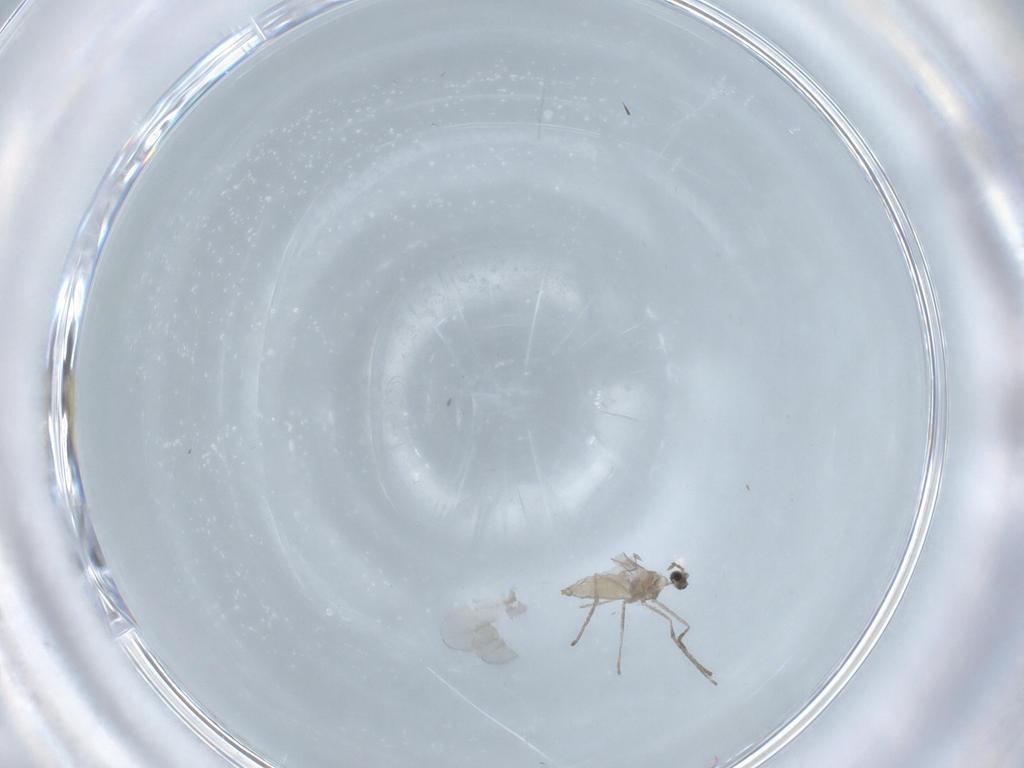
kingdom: Animalia
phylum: Arthropoda
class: Insecta
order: Diptera
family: Cecidomyiidae
